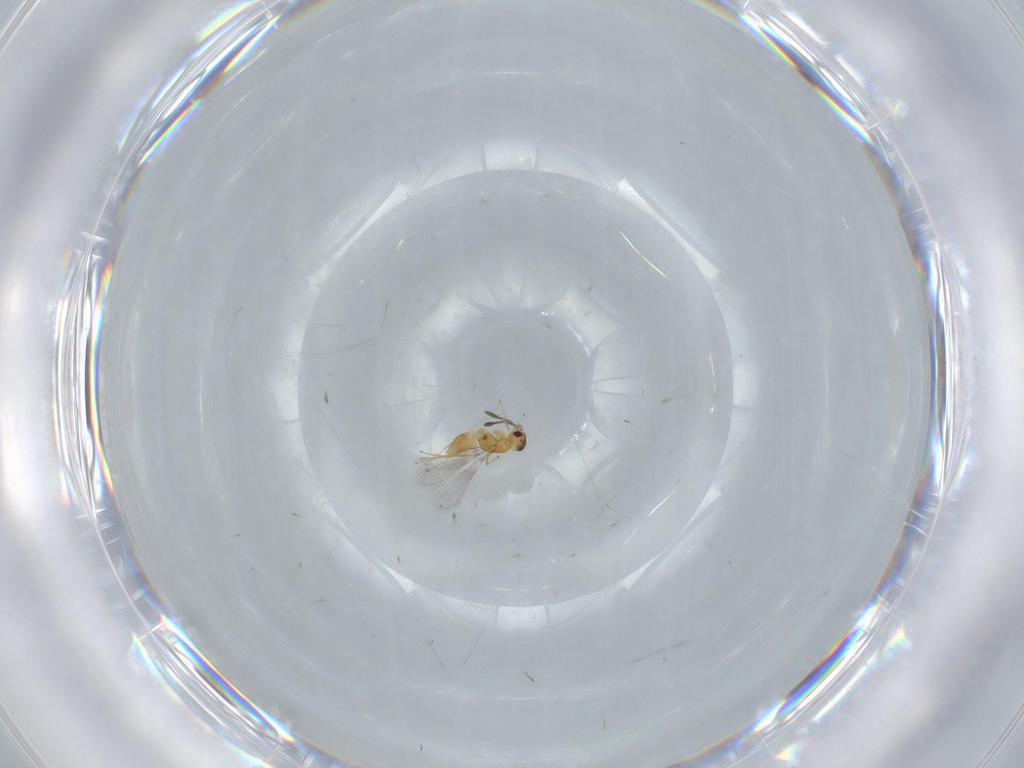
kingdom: Animalia
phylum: Arthropoda
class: Insecta
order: Hymenoptera
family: Mymaridae
